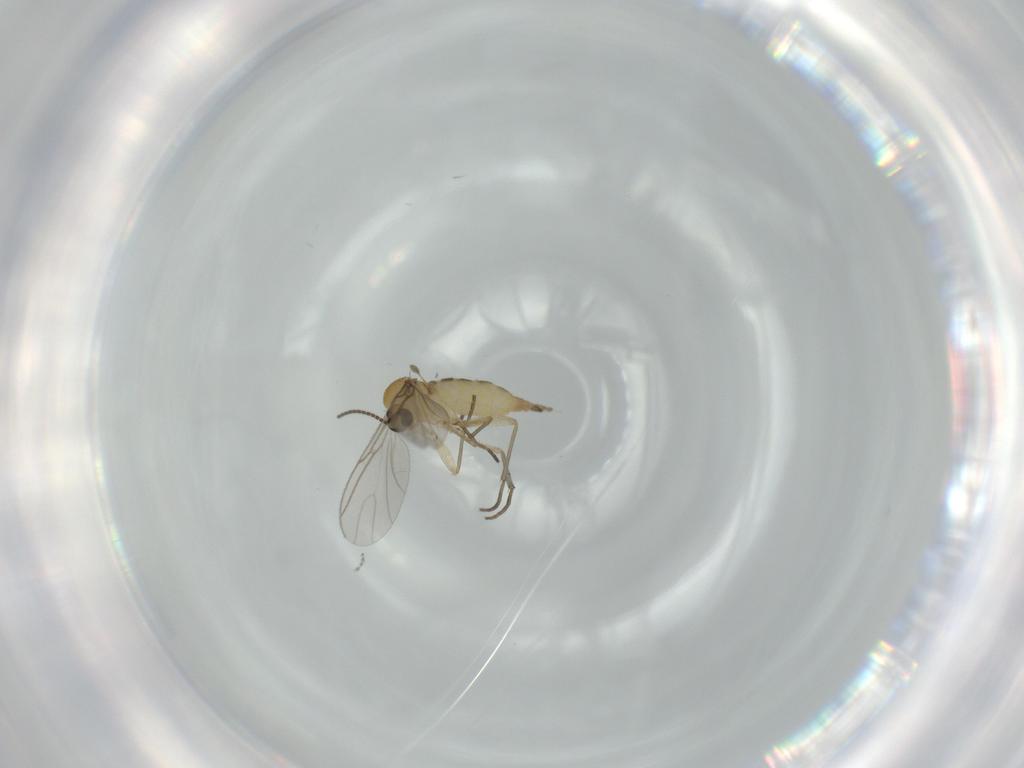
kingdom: Animalia
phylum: Arthropoda
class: Insecta
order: Diptera
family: Sciaridae
